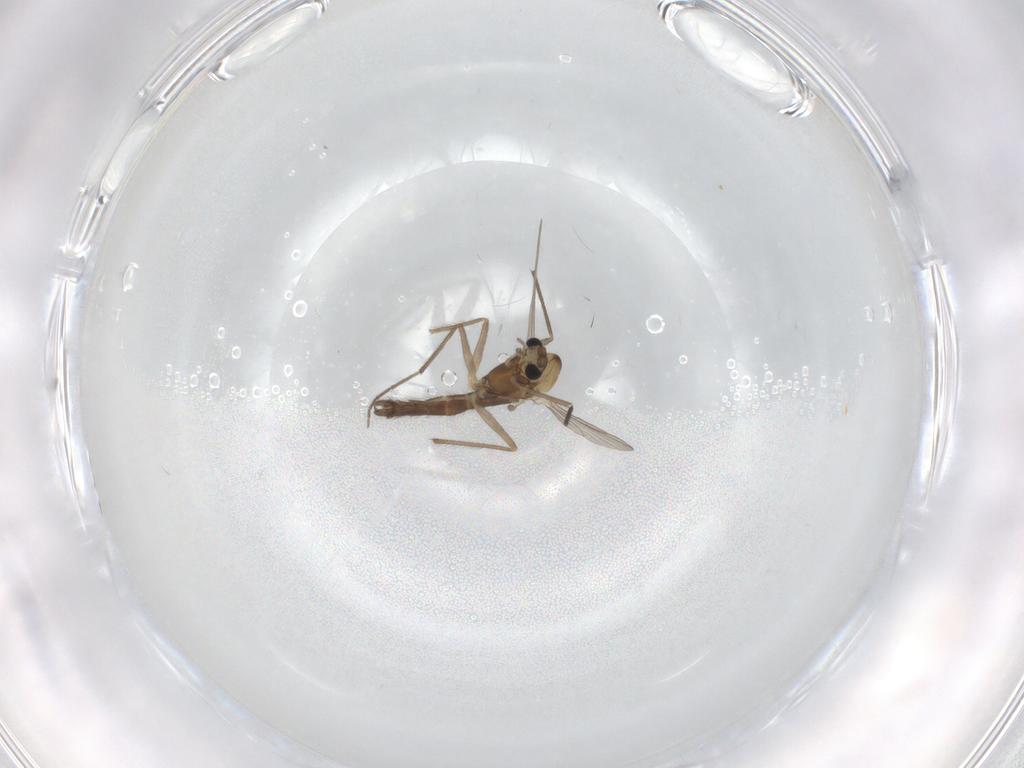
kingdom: Animalia
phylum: Arthropoda
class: Insecta
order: Diptera
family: Chironomidae
